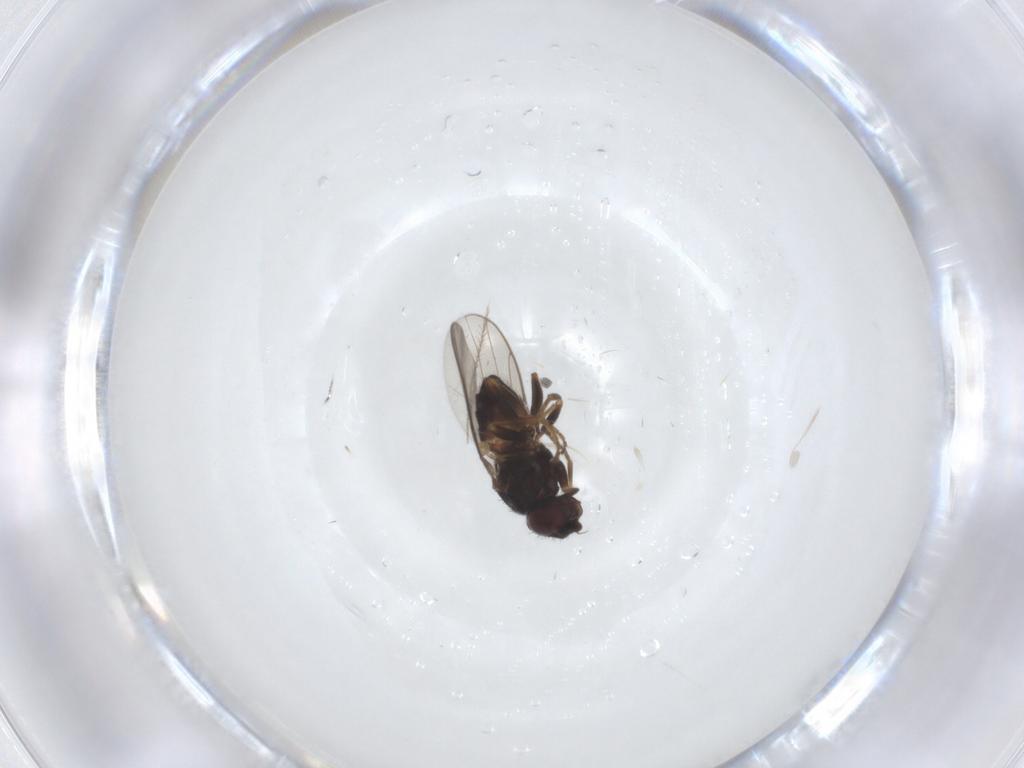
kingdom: Animalia
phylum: Arthropoda
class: Insecta
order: Diptera
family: Chloropidae
